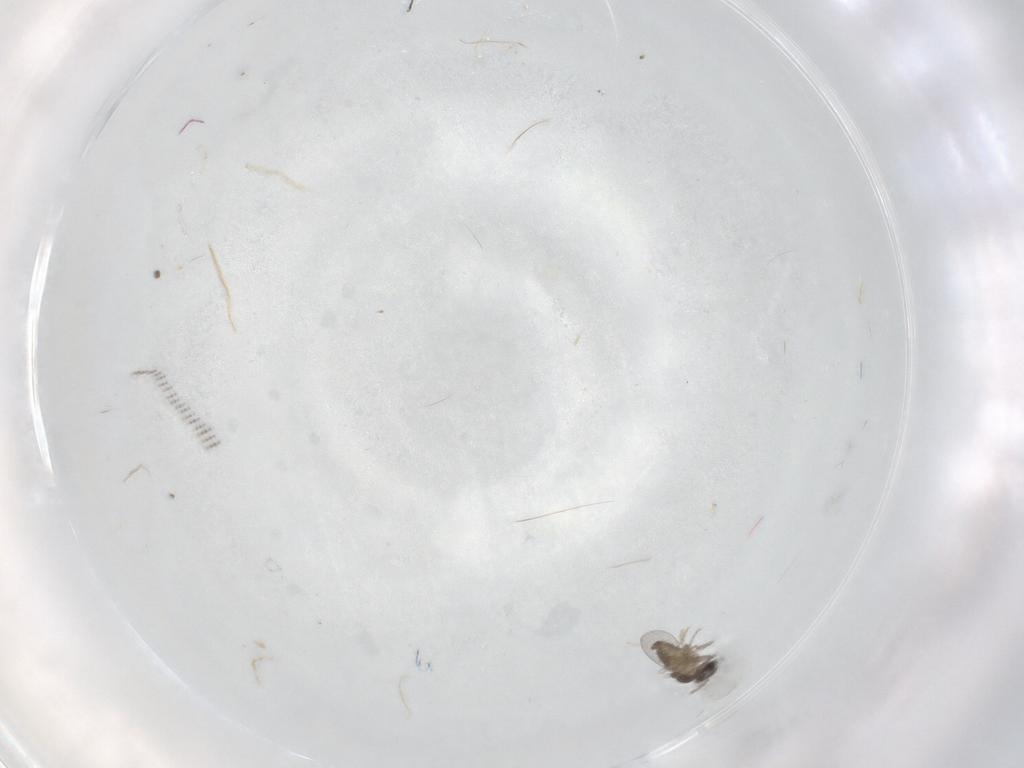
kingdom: Animalia
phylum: Arthropoda
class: Insecta
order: Diptera
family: Cecidomyiidae
